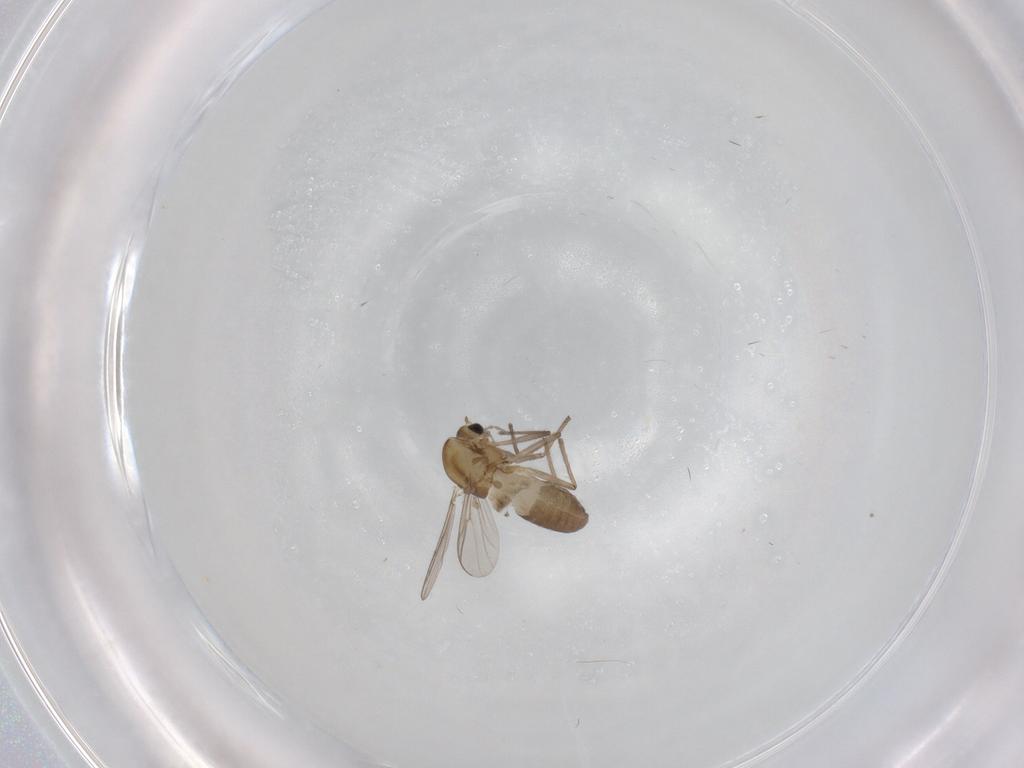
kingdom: Animalia
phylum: Arthropoda
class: Insecta
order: Diptera
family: Chironomidae
